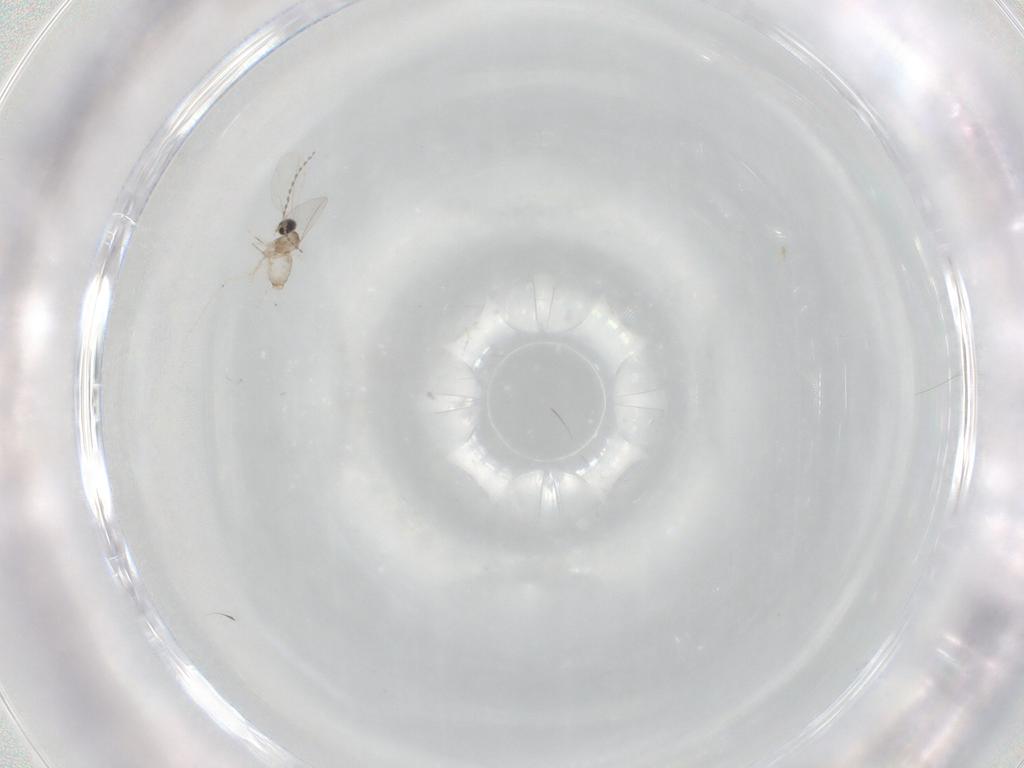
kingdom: Animalia
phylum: Arthropoda
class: Insecta
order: Diptera
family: Cecidomyiidae
